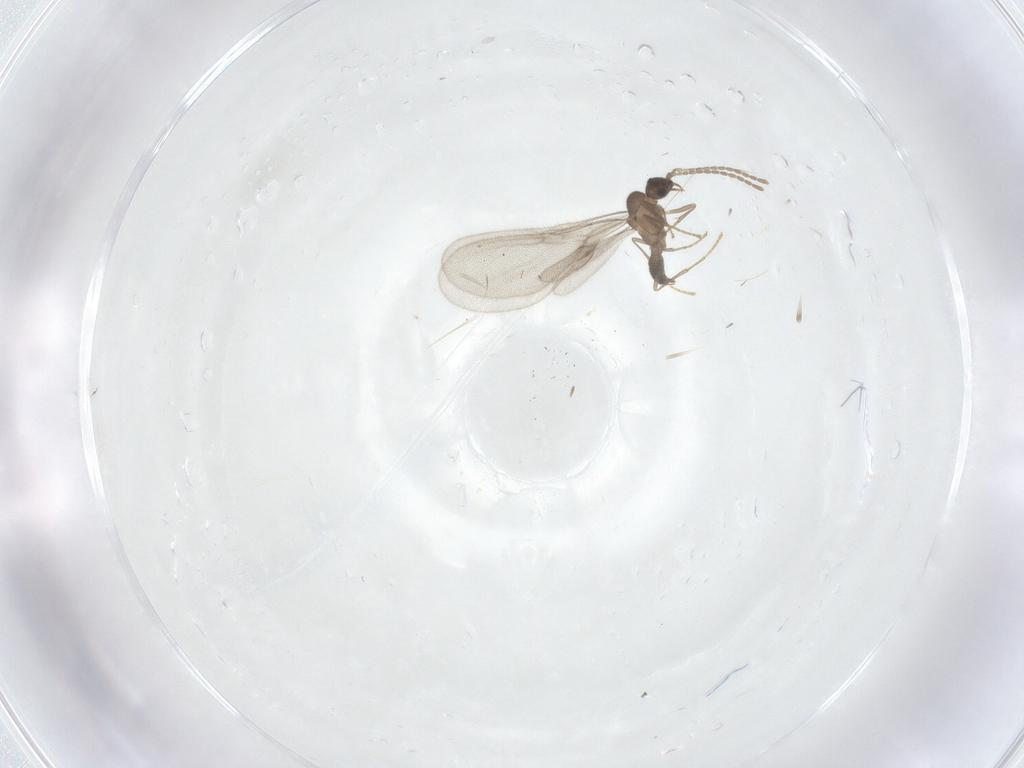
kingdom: Animalia
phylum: Arthropoda
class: Insecta
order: Hymenoptera
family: Formicidae
